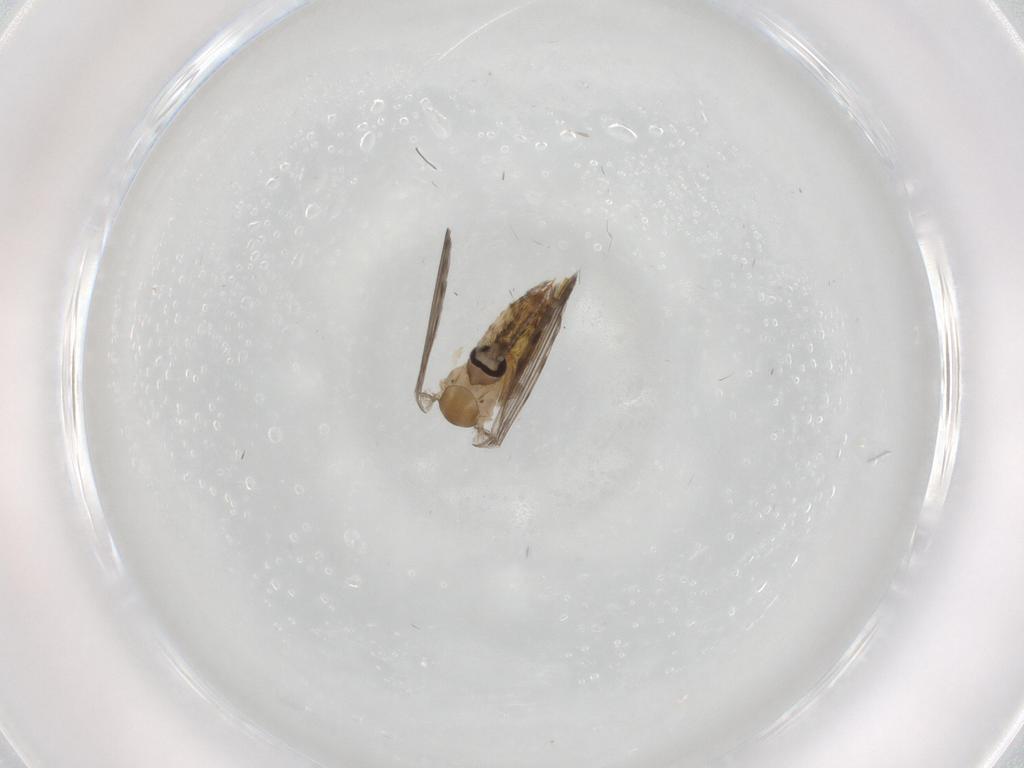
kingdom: Animalia
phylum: Arthropoda
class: Insecta
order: Diptera
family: Psychodidae
